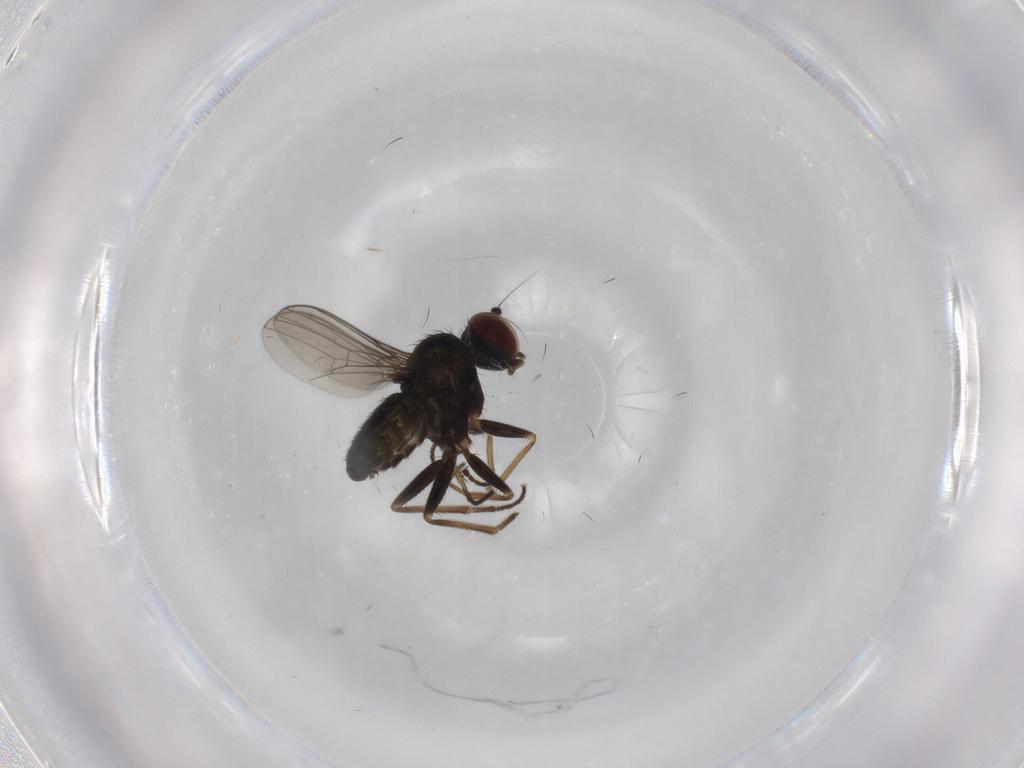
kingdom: Animalia
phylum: Arthropoda
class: Insecta
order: Diptera
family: Dolichopodidae
